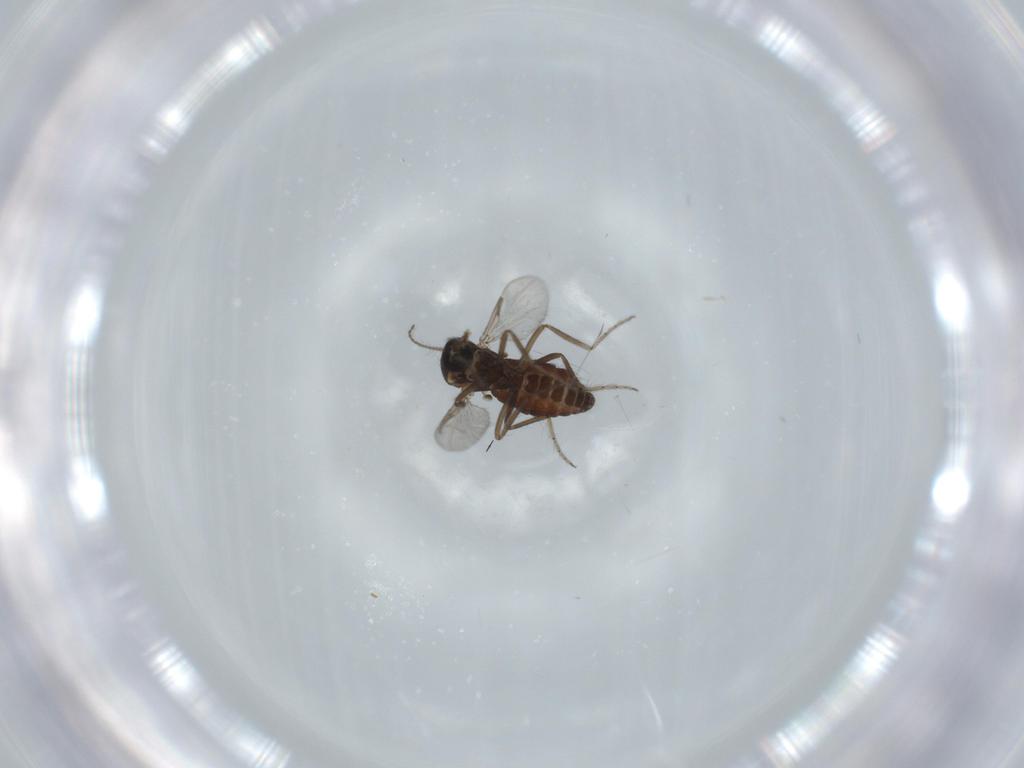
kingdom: Animalia
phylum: Arthropoda
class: Insecta
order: Diptera
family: Ceratopogonidae
